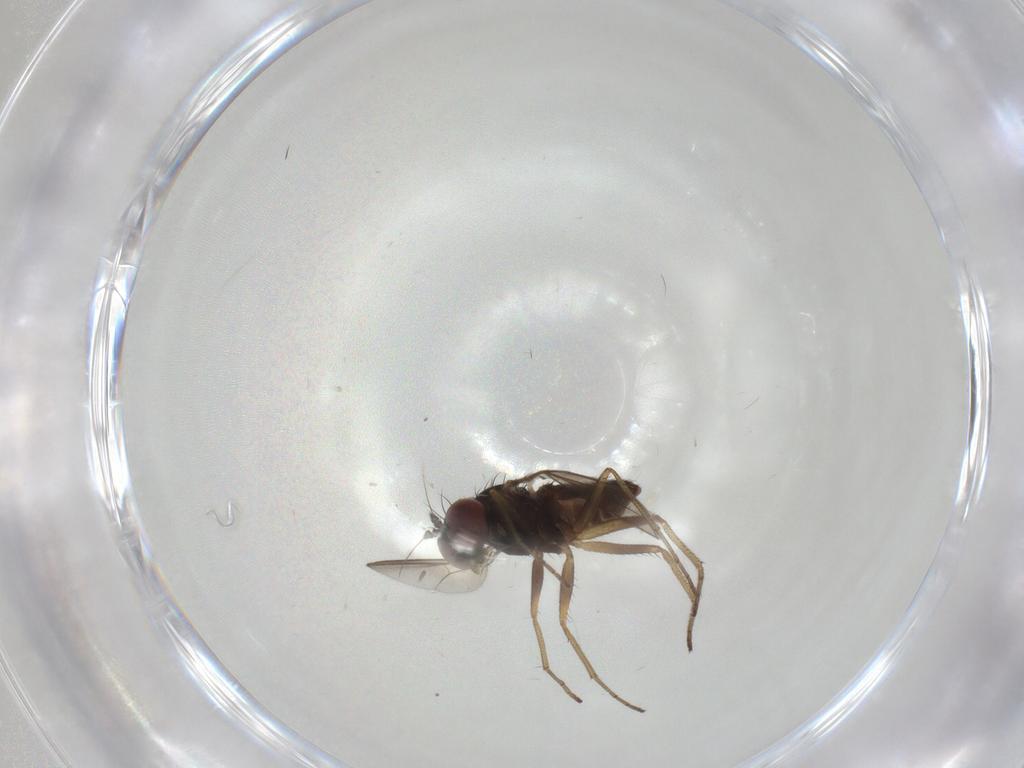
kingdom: Animalia
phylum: Arthropoda
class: Insecta
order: Diptera
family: Dolichopodidae
